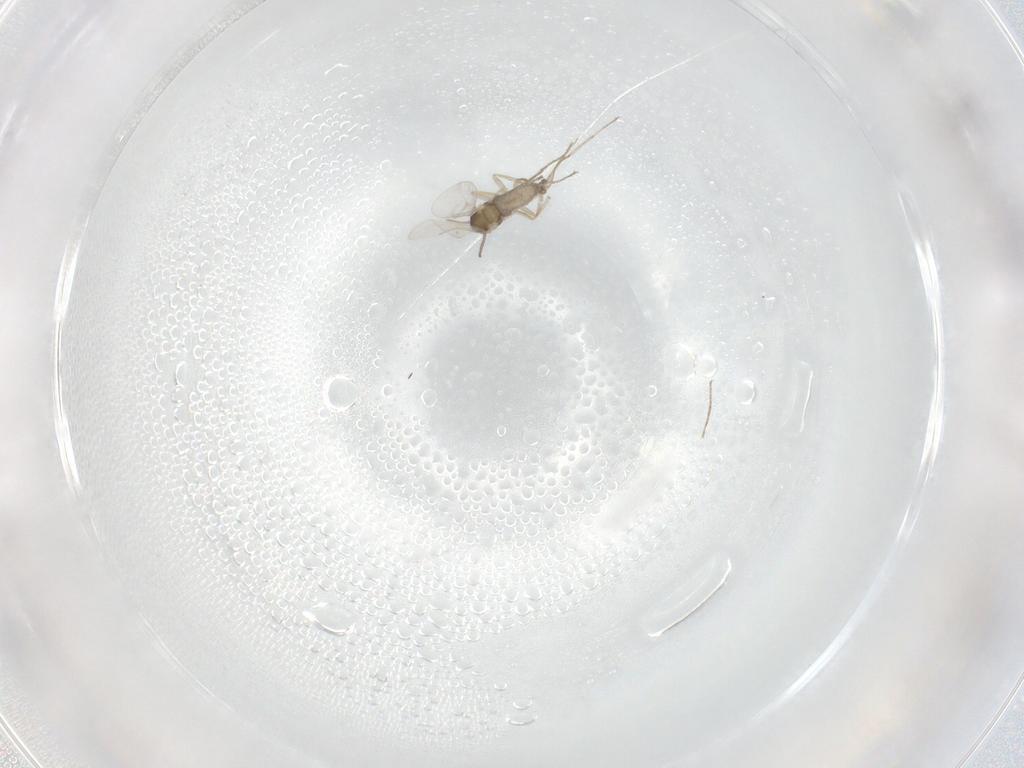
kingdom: Animalia
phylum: Arthropoda
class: Insecta
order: Diptera
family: Cecidomyiidae
